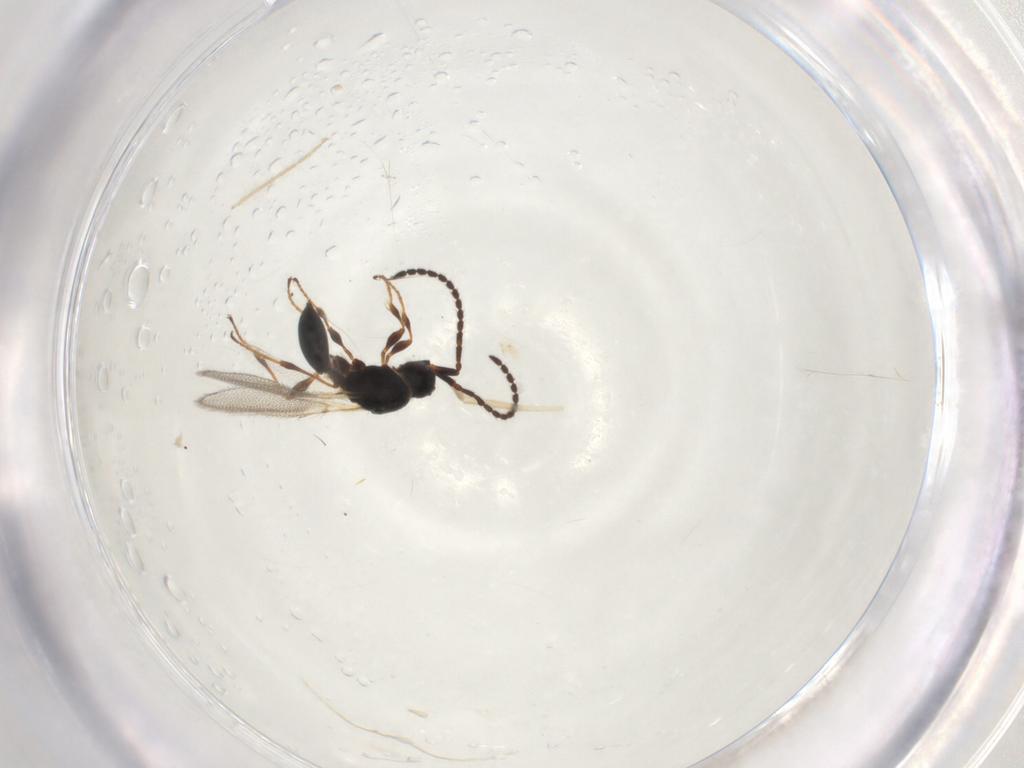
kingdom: Animalia
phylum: Arthropoda
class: Insecta
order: Hymenoptera
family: Diapriidae
